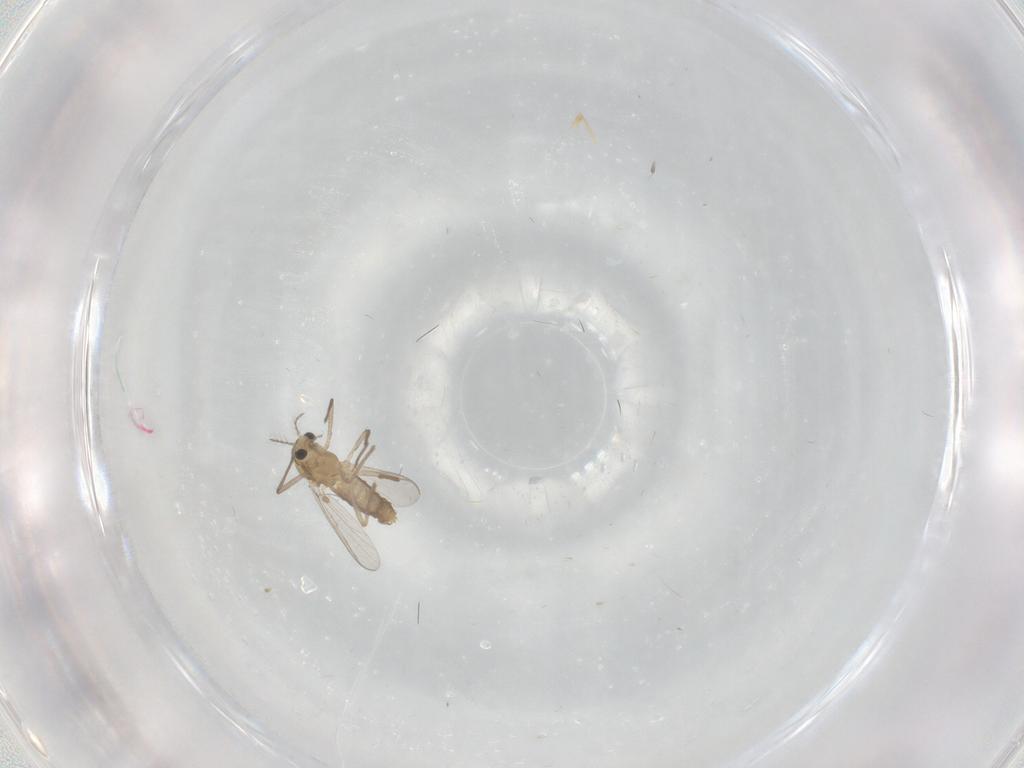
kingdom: Animalia
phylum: Arthropoda
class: Insecta
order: Diptera
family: Chironomidae
